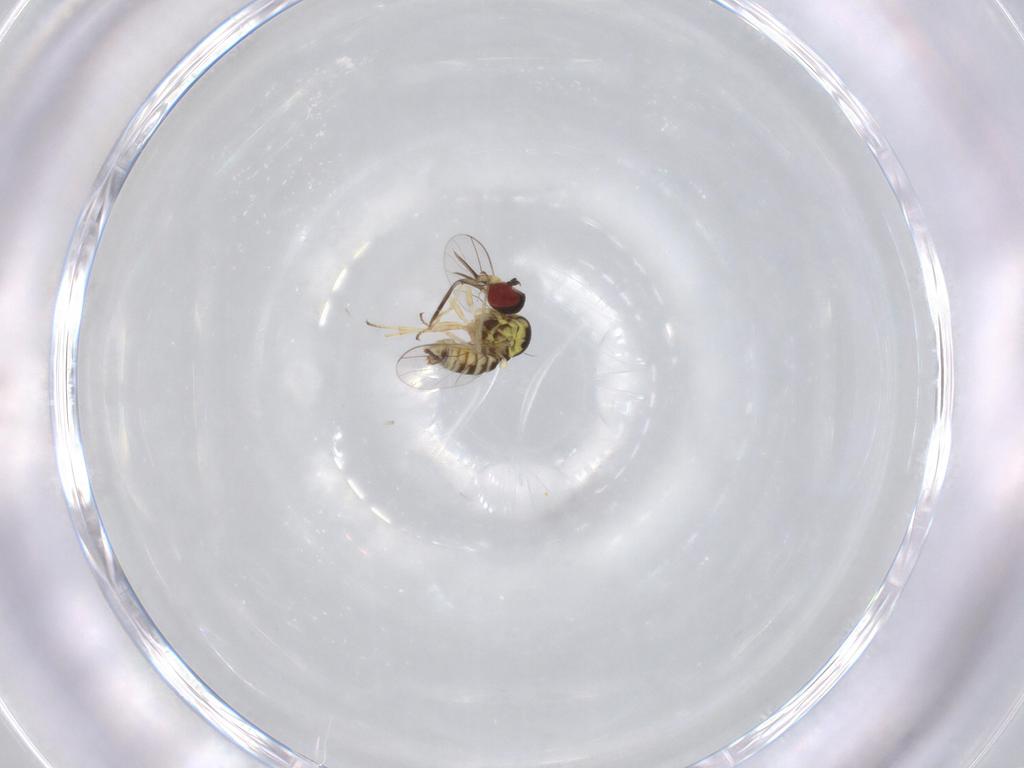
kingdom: Animalia
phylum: Arthropoda
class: Insecta
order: Diptera
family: Bombyliidae
